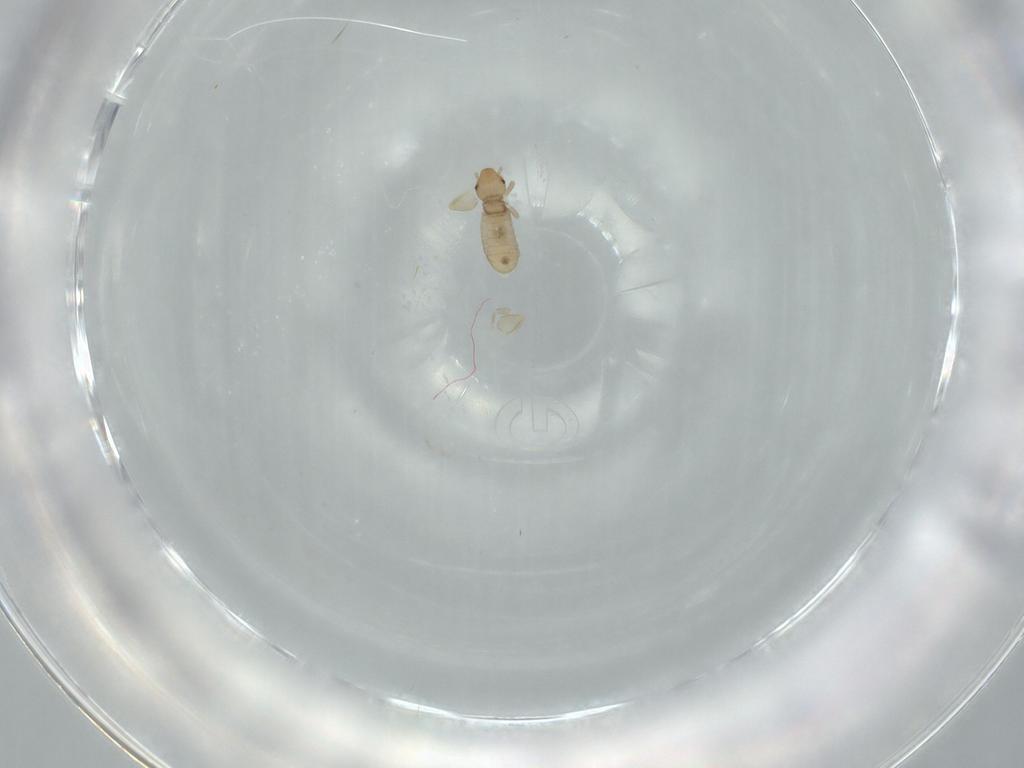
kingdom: Animalia
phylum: Arthropoda
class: Insecta
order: Psocodea
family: Liposcelididae
